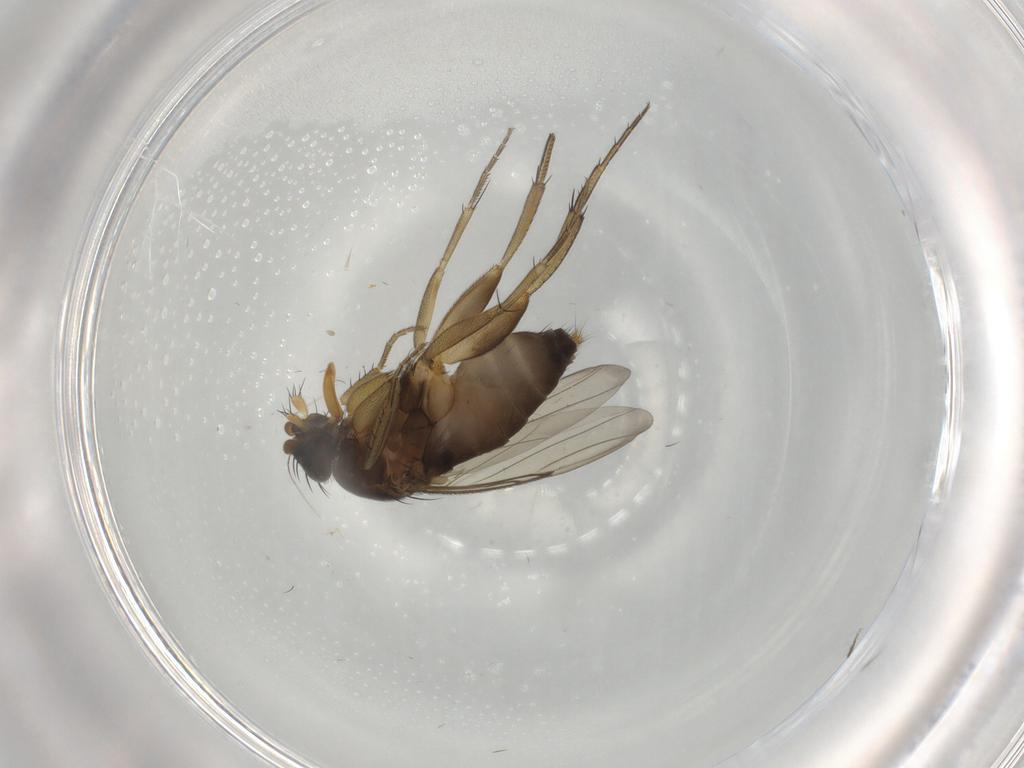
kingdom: Animalia
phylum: Arthropoda
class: Insecta
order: Diptera
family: Phoridae
